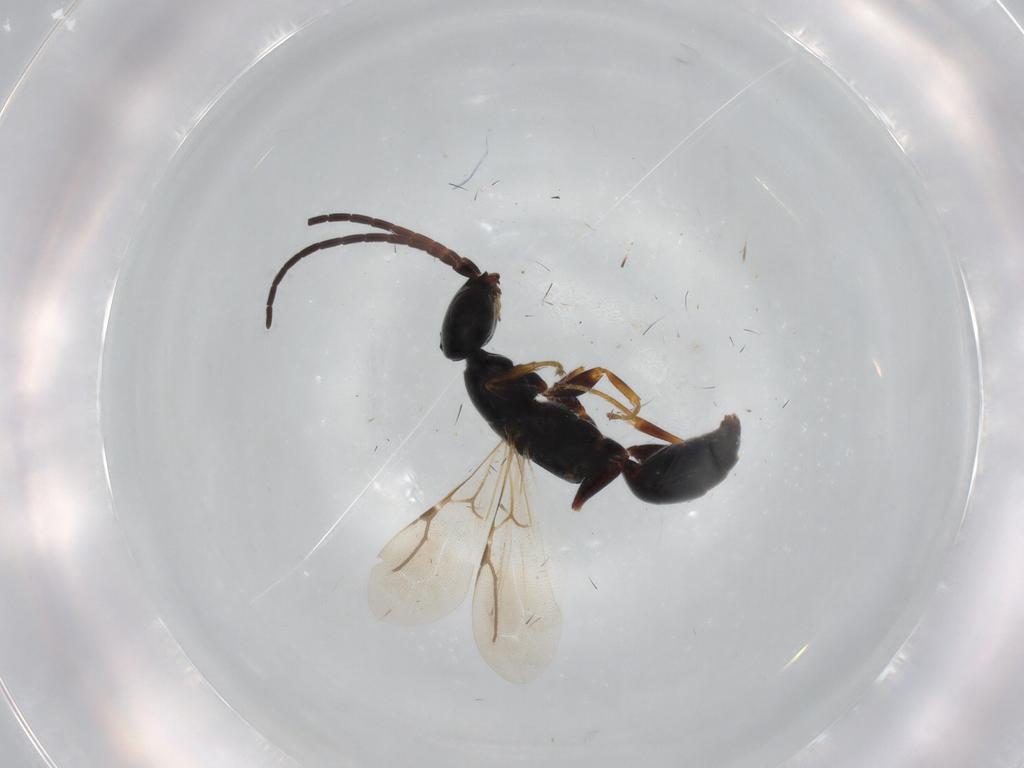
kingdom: Animalia
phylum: Arthropoda
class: Insecta
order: Hymenoptera
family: Bethylidae
